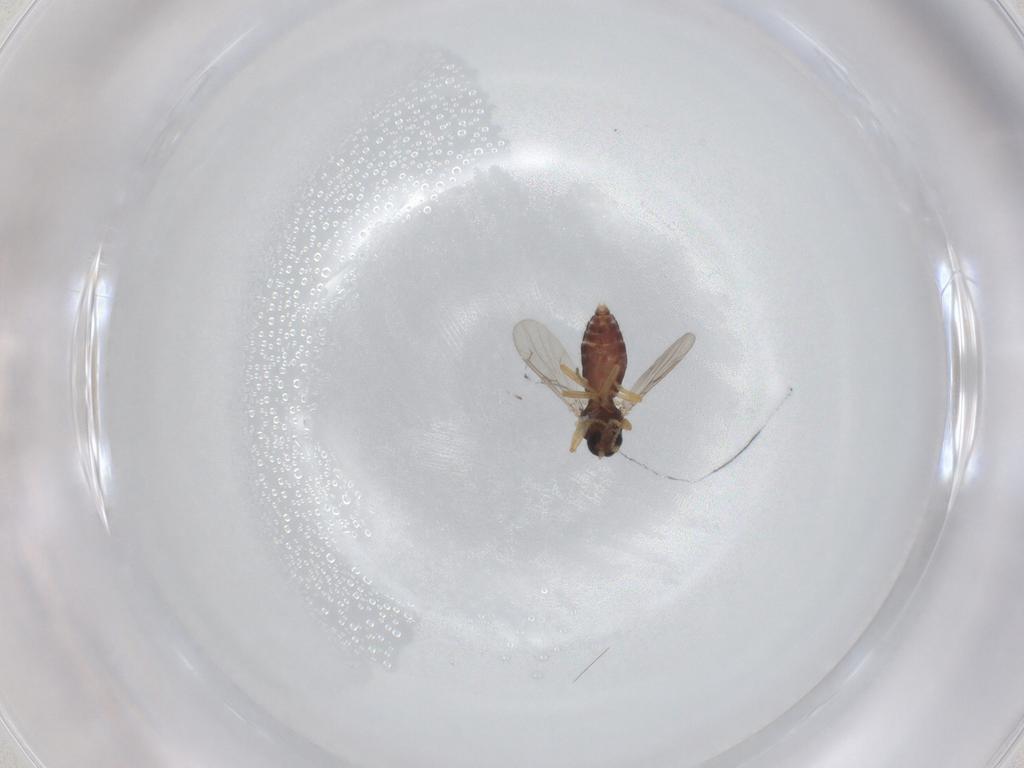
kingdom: Animalia
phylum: Arthropoda
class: Insecta
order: Diptera
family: Ceratopogonidae
